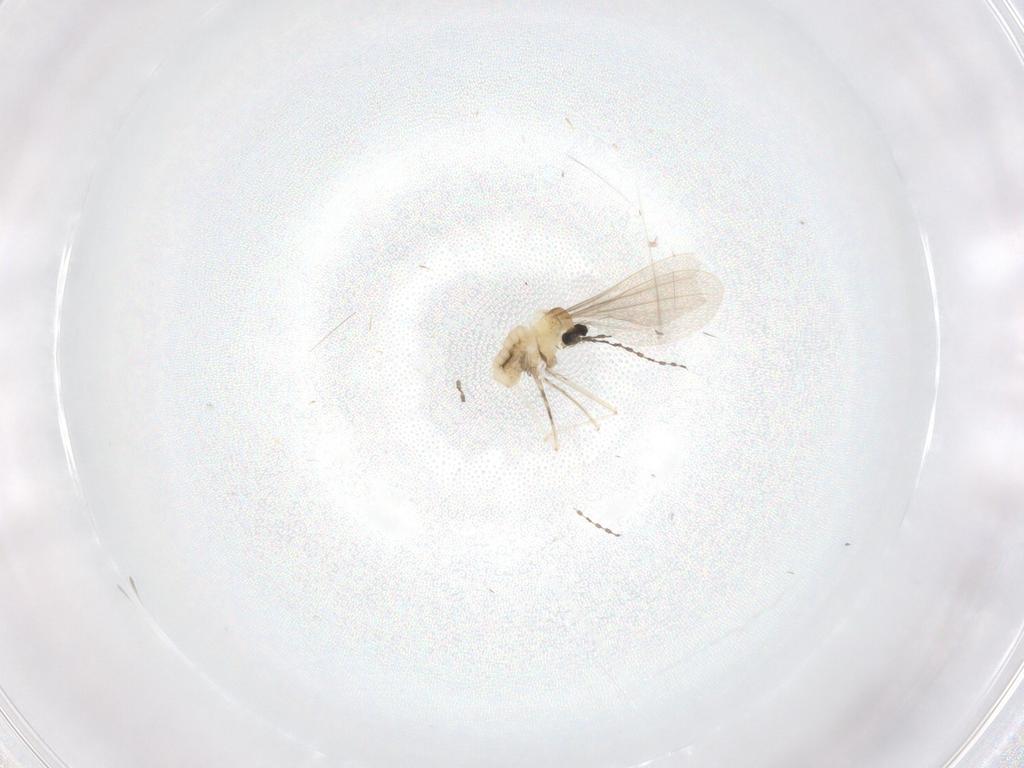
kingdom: Animalia
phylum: Arthropoda
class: Insecta
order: Diptera
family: Cecidomyiidae
